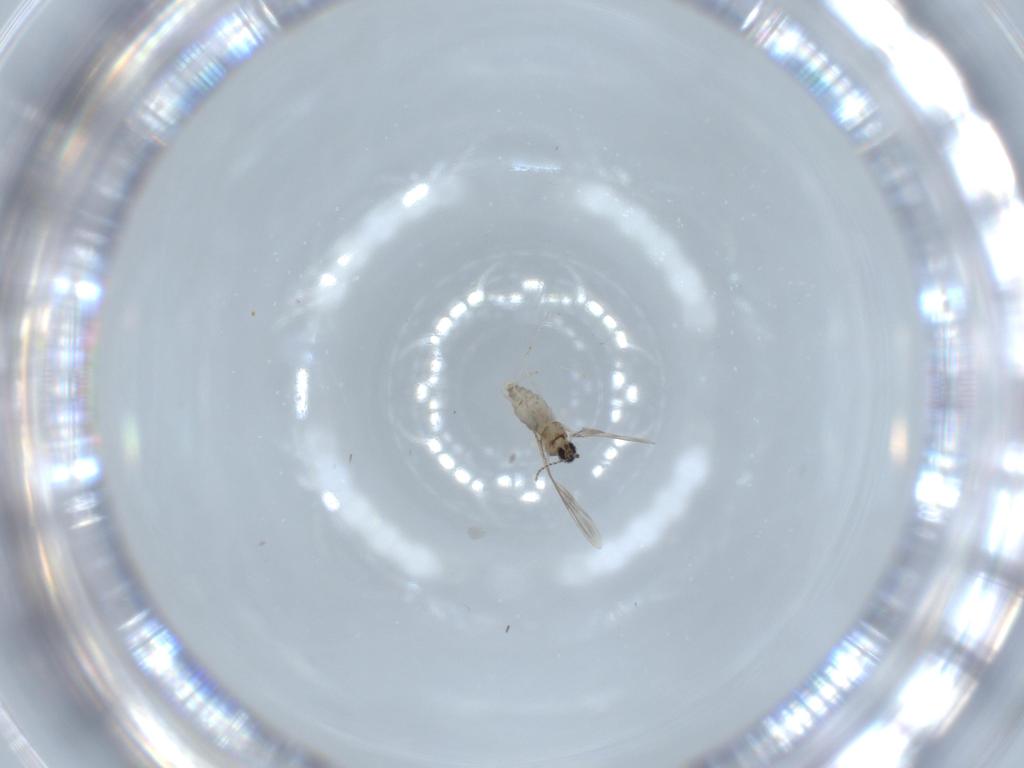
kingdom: Animalia
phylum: Arthropoda
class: Insecta
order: Diptera
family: Cecidomyiidae
